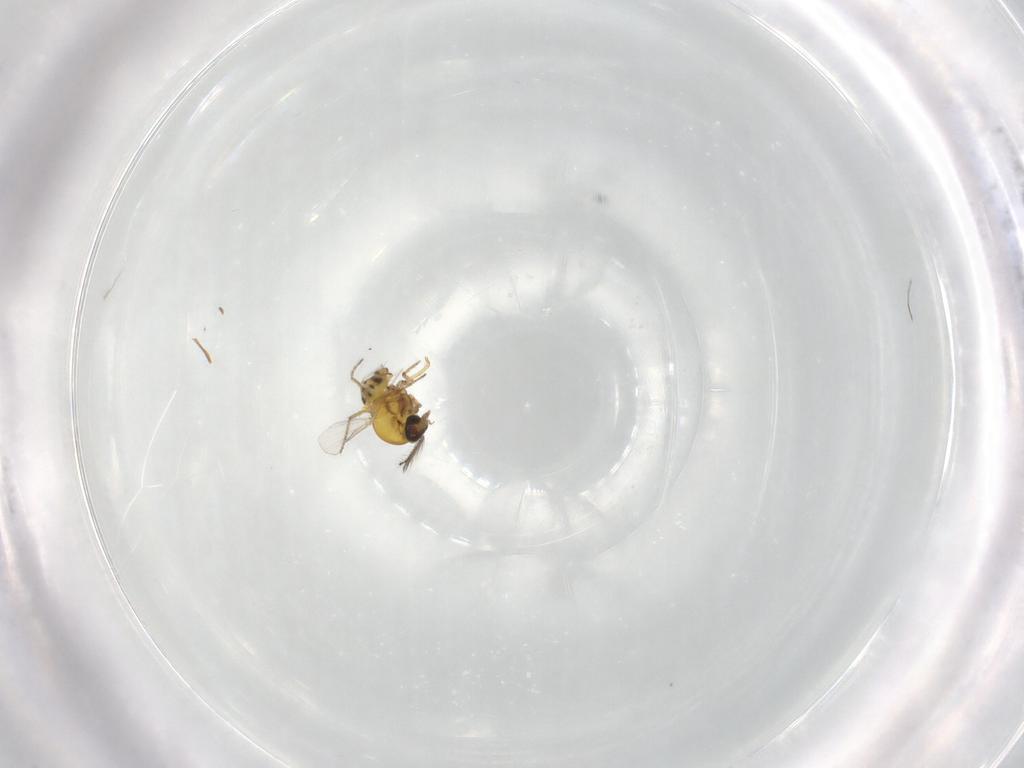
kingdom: Animalia
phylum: Arthropoda
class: Insecta
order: Diptera
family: Ceratopogonidae
